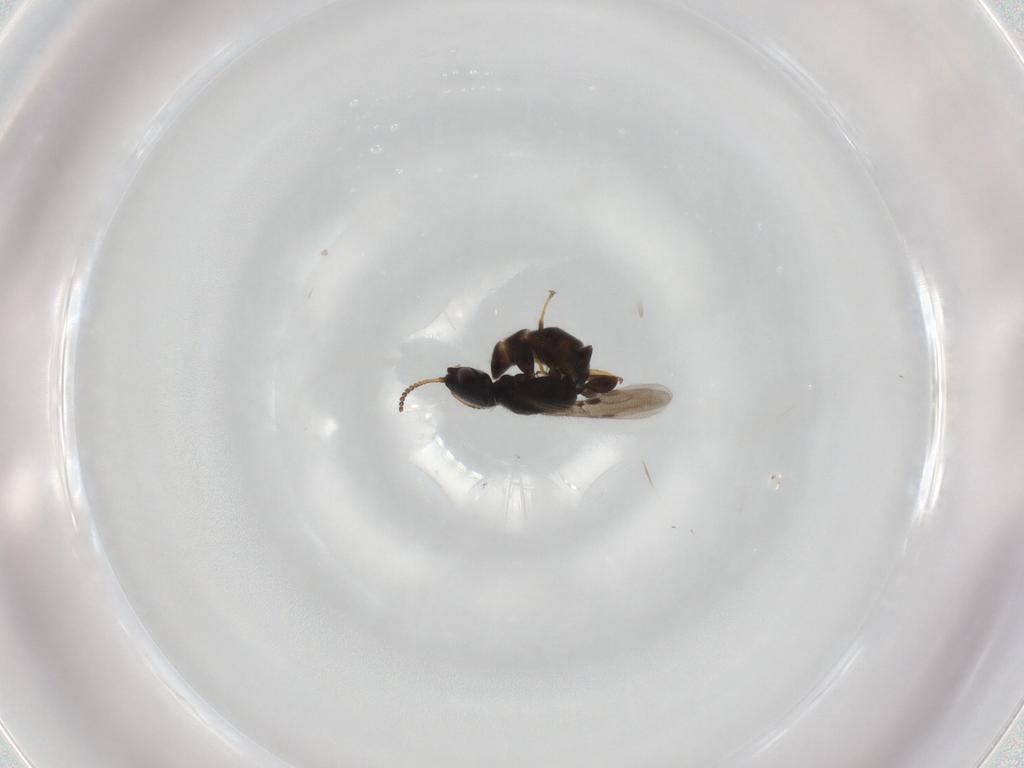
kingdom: Animalia
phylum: Arthropoda
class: Insecta
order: Hymenoptera
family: Bethylidae
